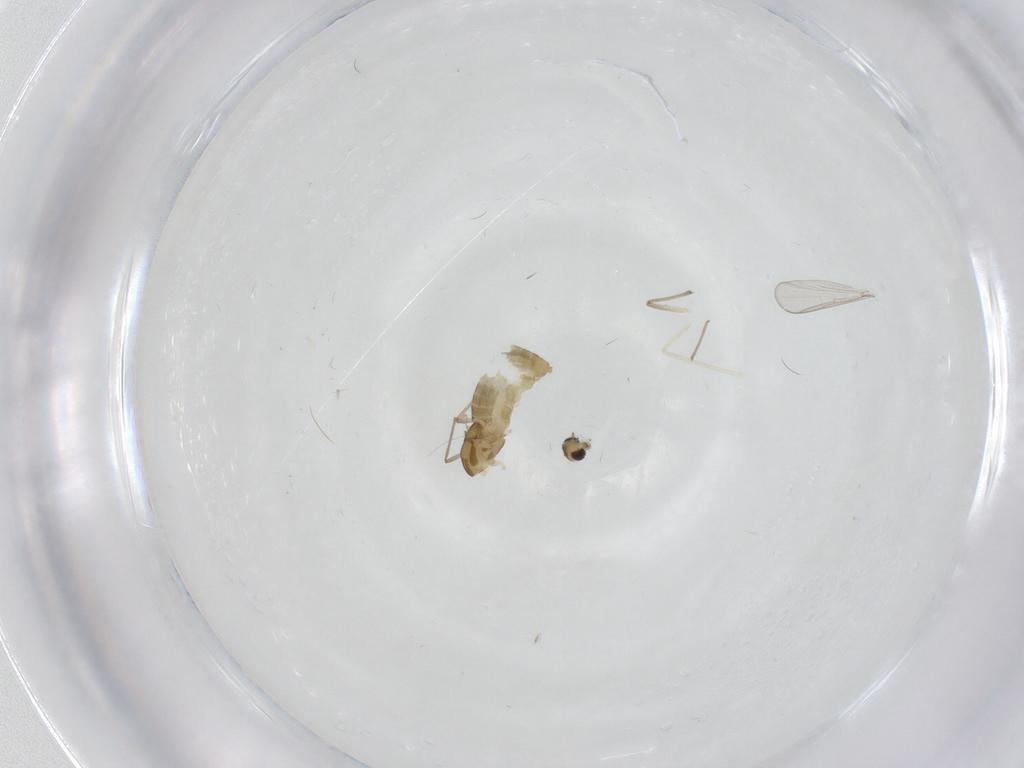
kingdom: Animalia
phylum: Arthropoda
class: Insecta
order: Diptera
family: Chironomidae
